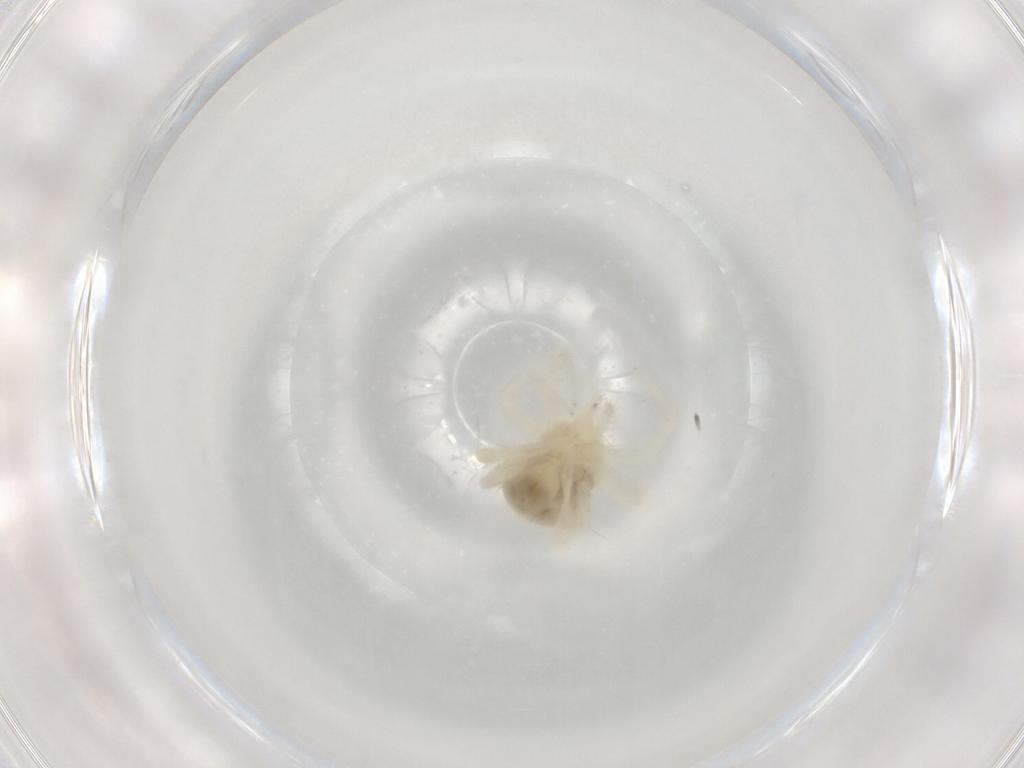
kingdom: Animalia
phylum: Arthropoda
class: Arachnida
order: Trombidiformes
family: Anystidae
